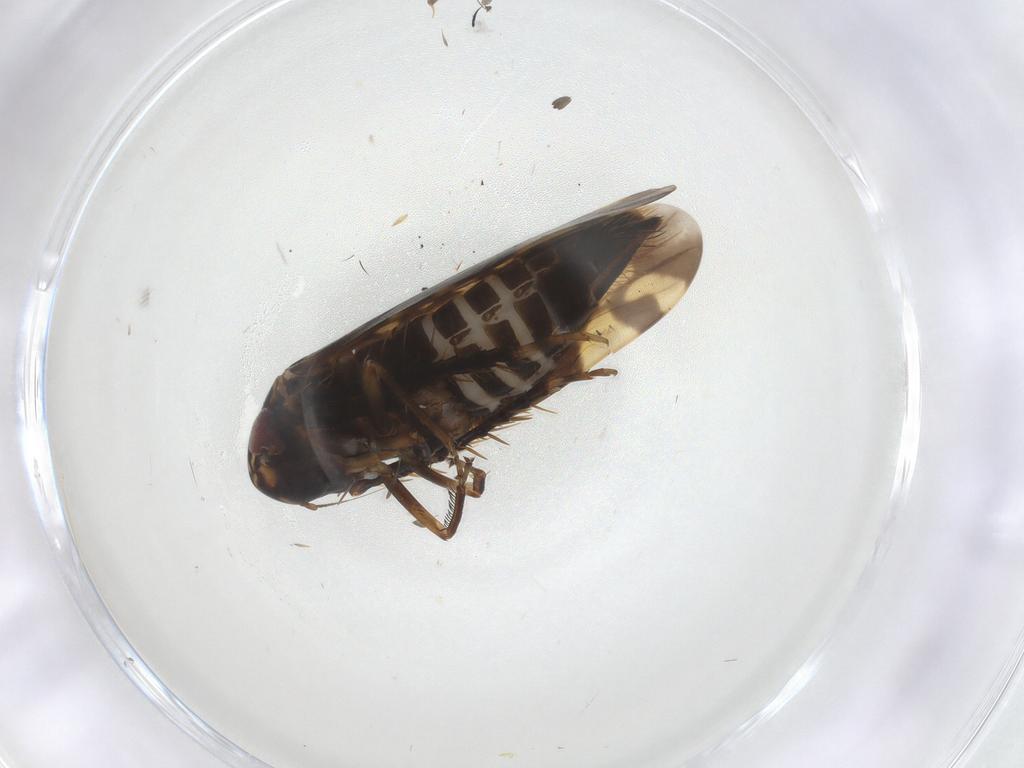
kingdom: Animalia
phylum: Arthropoda
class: Insecta
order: Hemiptera
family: Cicadellidae
